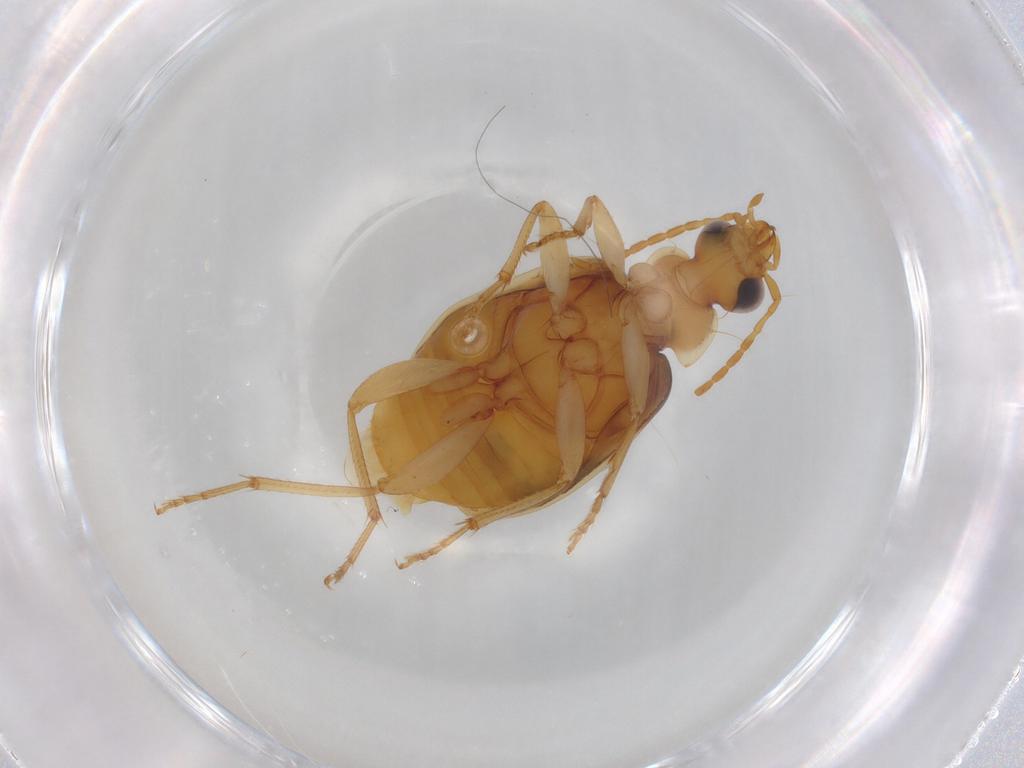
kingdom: Animalia
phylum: Arthropoda
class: Insecta
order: Coleoptera
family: Carabidae
